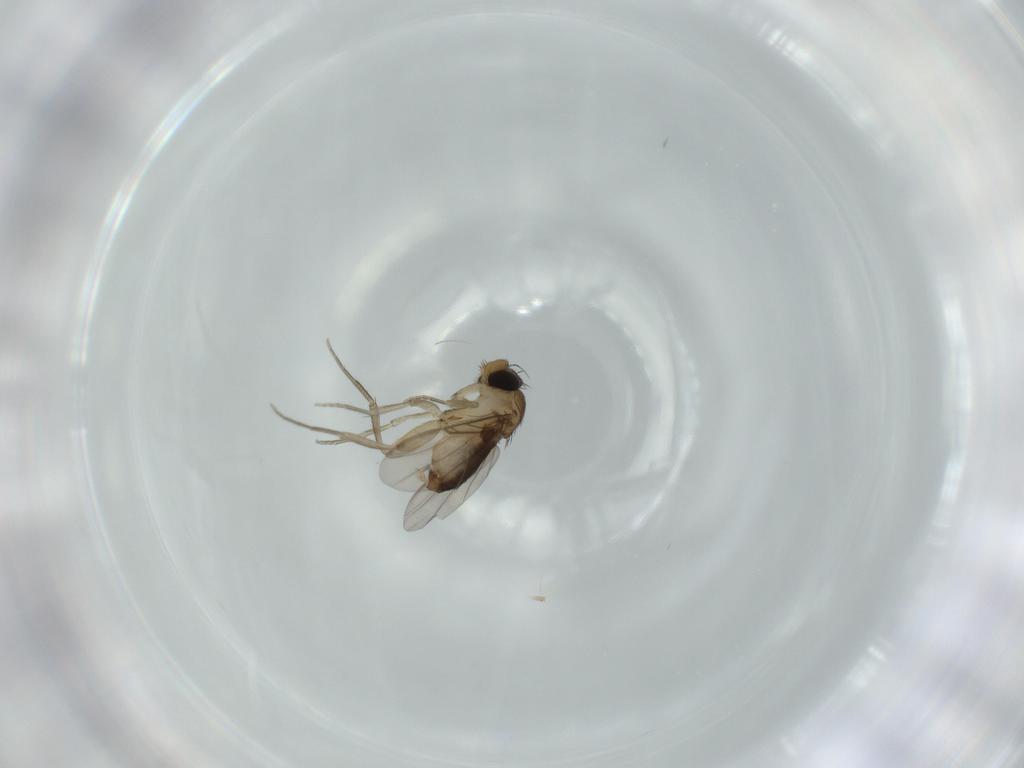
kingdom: Animalia
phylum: Arthropoda
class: Insecta
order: Diptera
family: Phoridae
